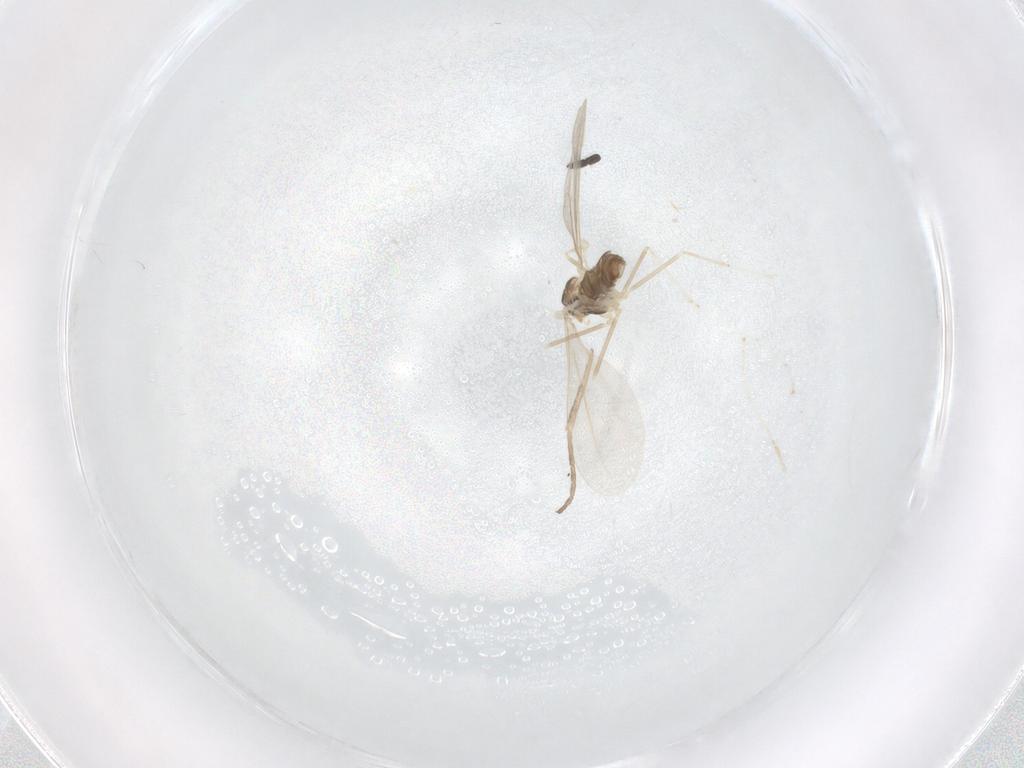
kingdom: Animalia
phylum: Arthropoda
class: Insecta
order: Diptera
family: Cecidomyiidae
